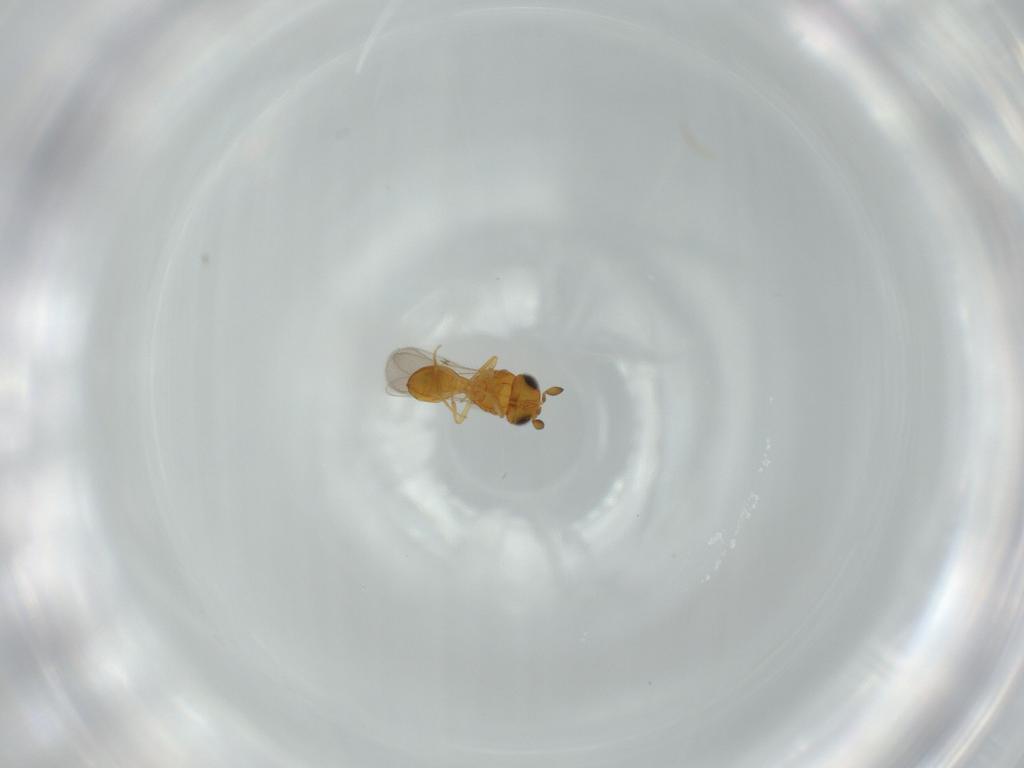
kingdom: Animalia
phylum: Arthropoda
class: Insecta
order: Hymenoptera
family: Scelionidae
